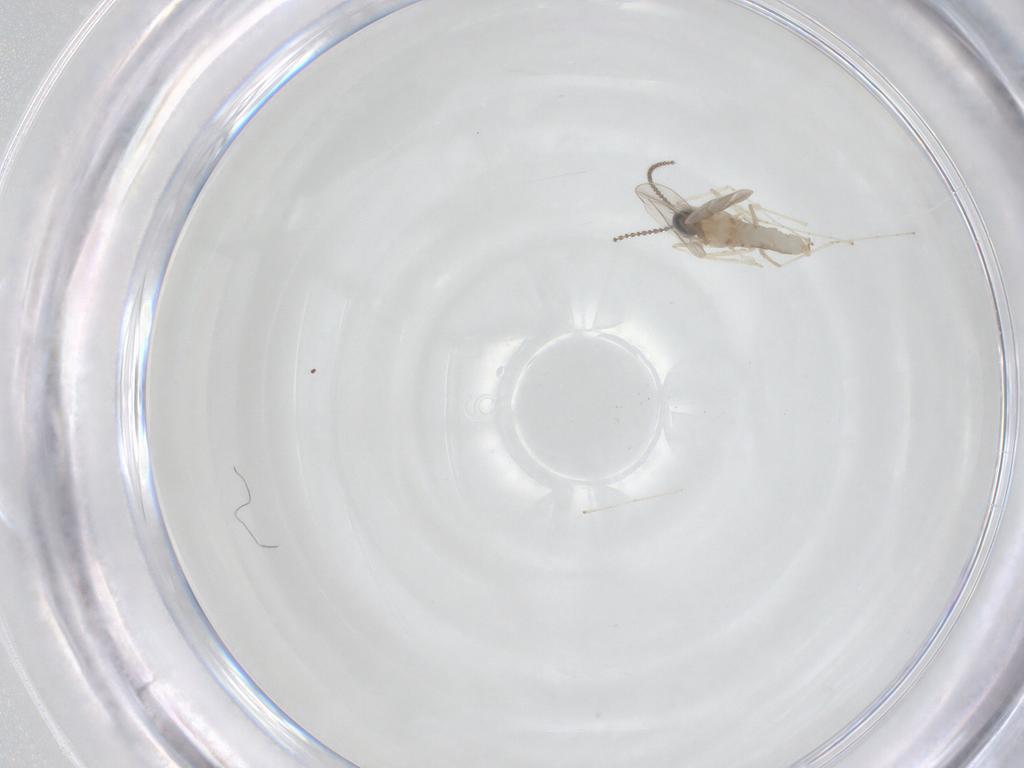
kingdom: Animalia
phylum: Arthropoda
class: Insecta
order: Diptera
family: Cecidomyiidae
